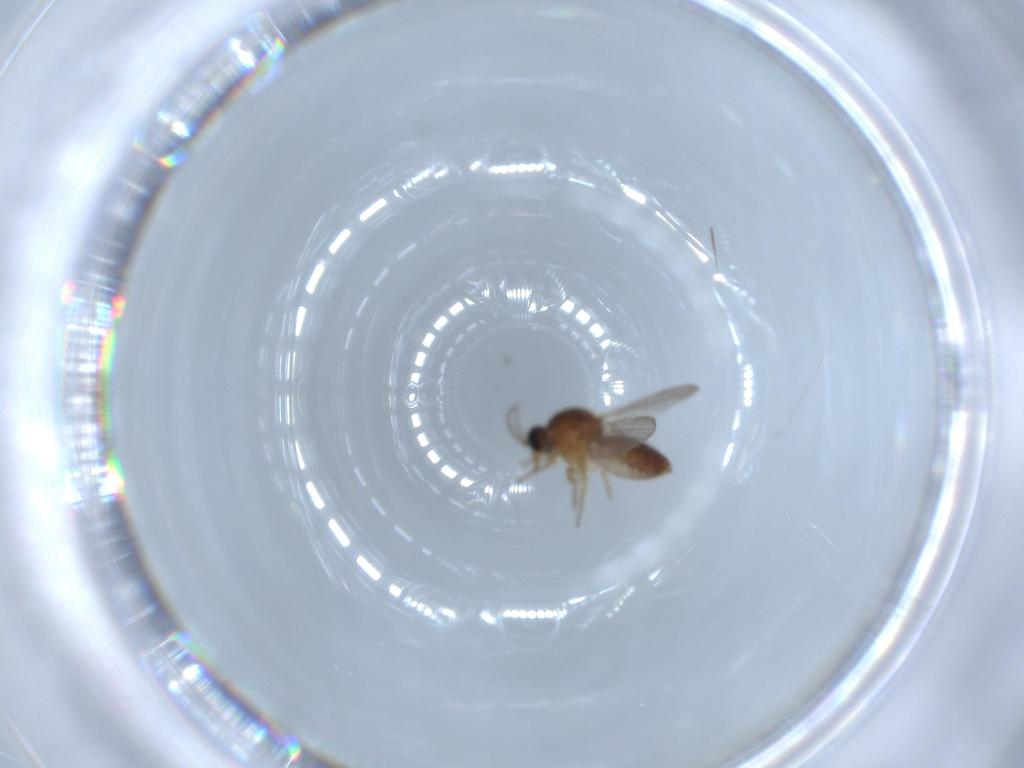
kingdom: Animalia
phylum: Arthropoda
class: Insecta
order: Diptera
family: Ceratopogonidae
